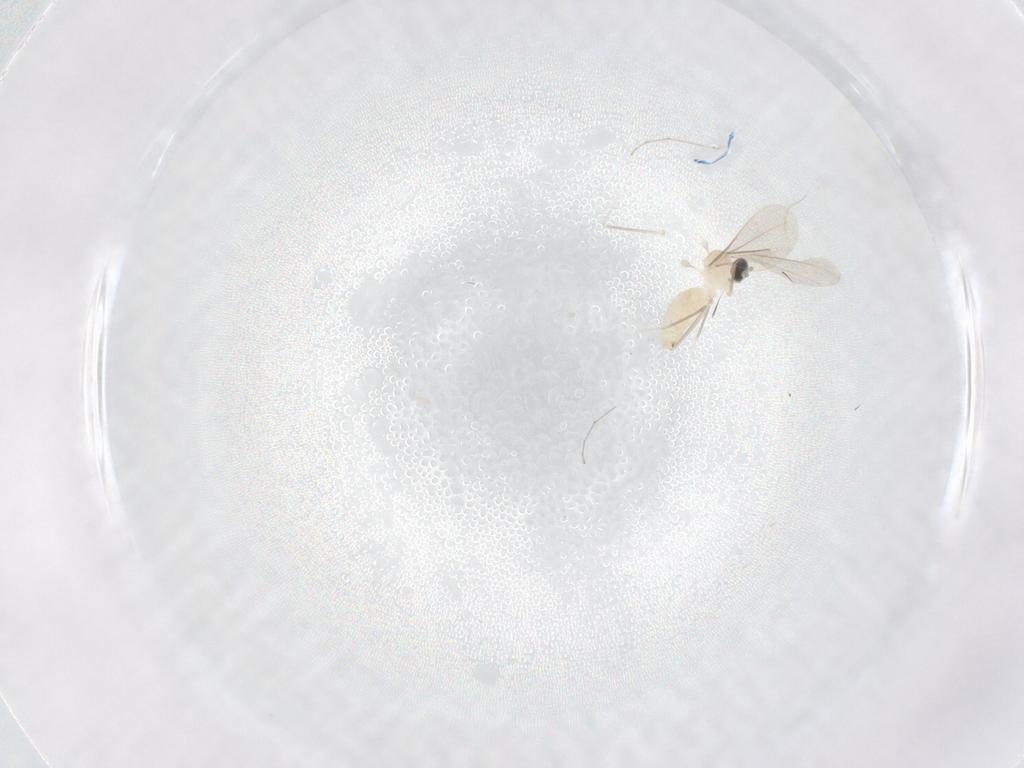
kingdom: Animalia
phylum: Arthropoda
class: Insecta
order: Diptera
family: Cecidomyiidae
